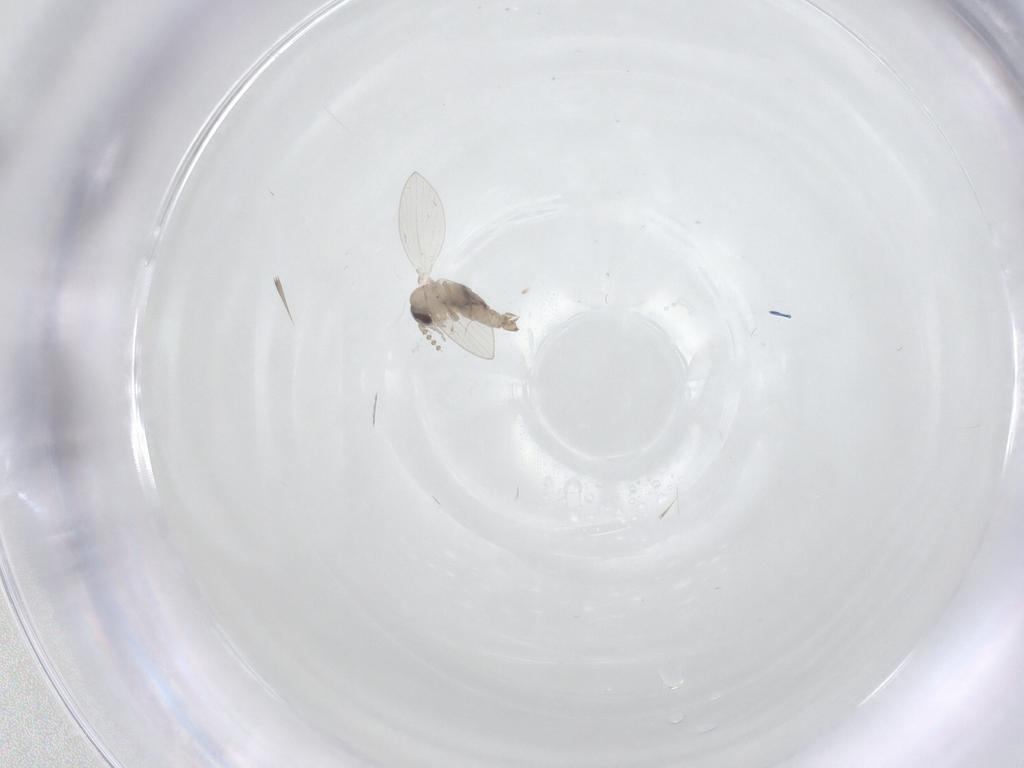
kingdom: Animalia
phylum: Arthropoda
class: Insecta
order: Diptera
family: Psychodidae
